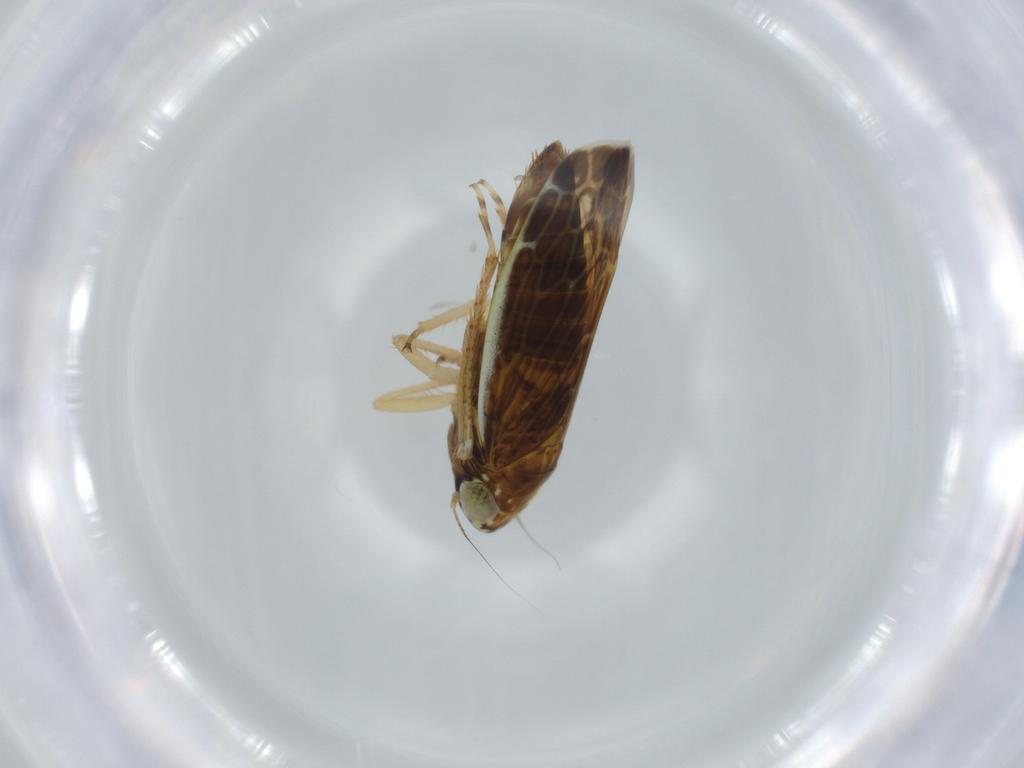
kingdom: Animalia
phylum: Arthropoda
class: Insecta
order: Hemiptera
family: Cicadellidae
